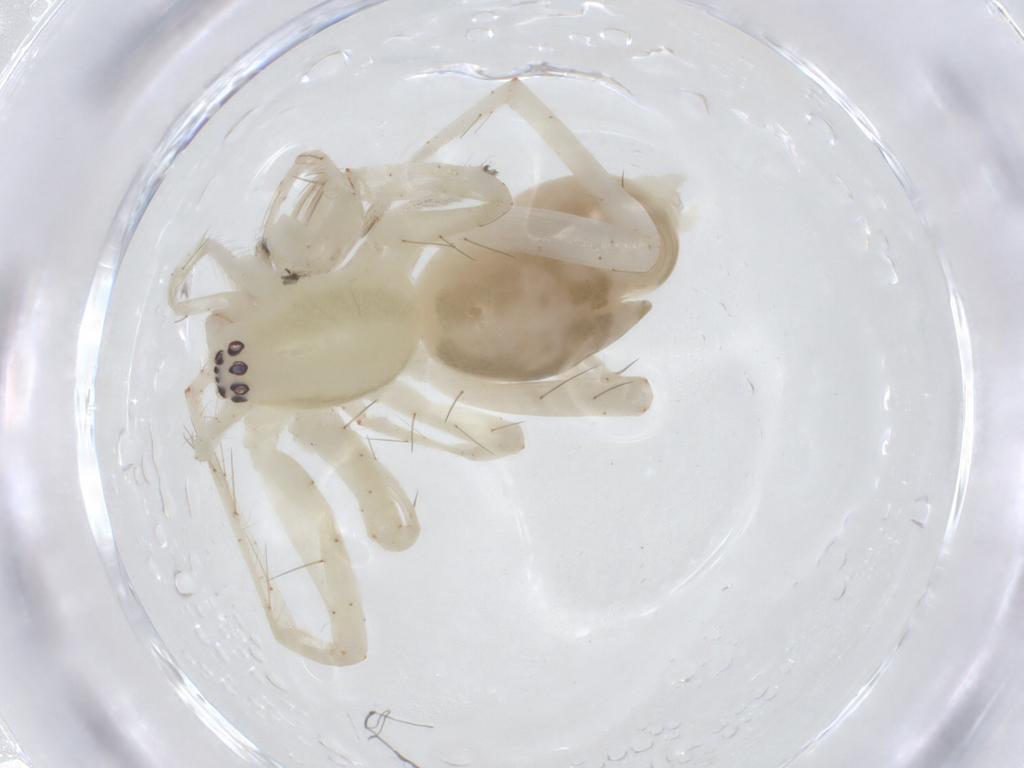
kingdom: Animalia
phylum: Arthropoda
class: Arachnida
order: Araneae
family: Anyphaenidae
